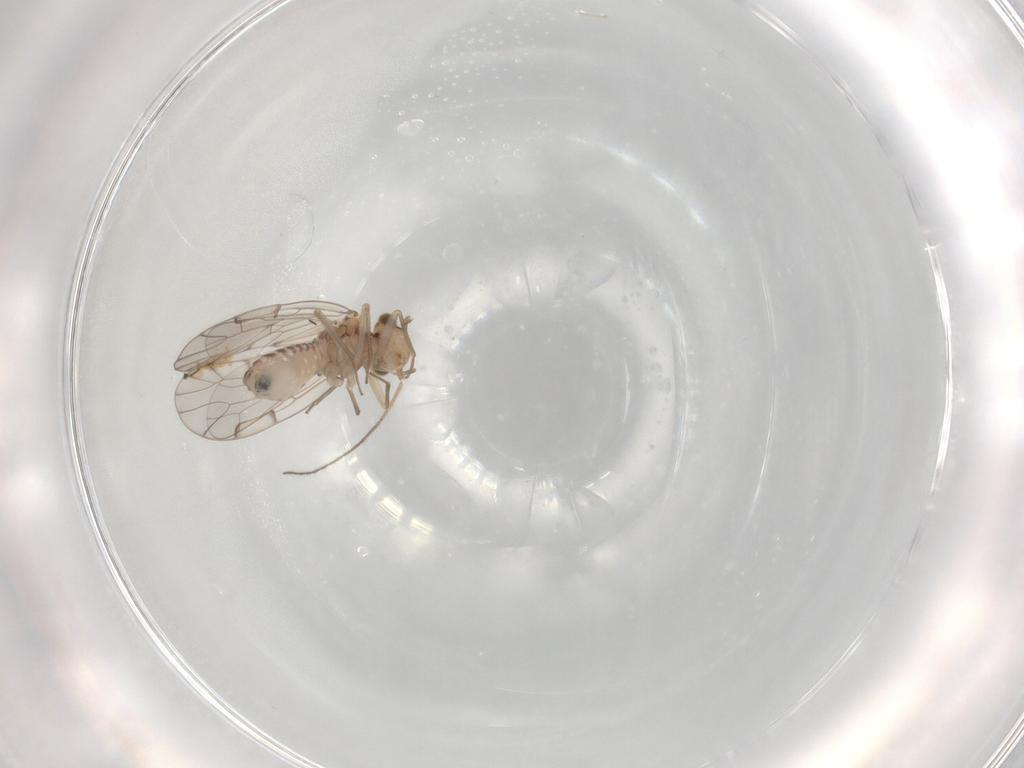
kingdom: Animalia
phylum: Arthropoda
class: Insecta
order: Psocodea
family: Ectopsocidae
